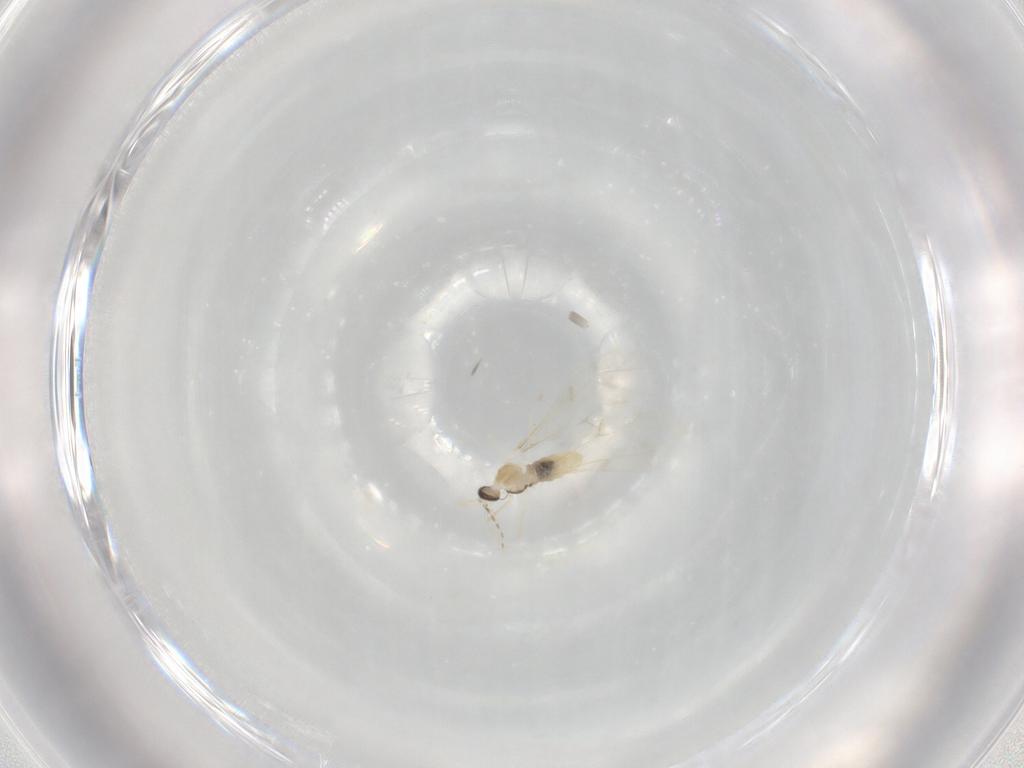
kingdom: Animalia
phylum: Arthropoda
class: Insecta
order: Diptera
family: Cecidomyiidae
